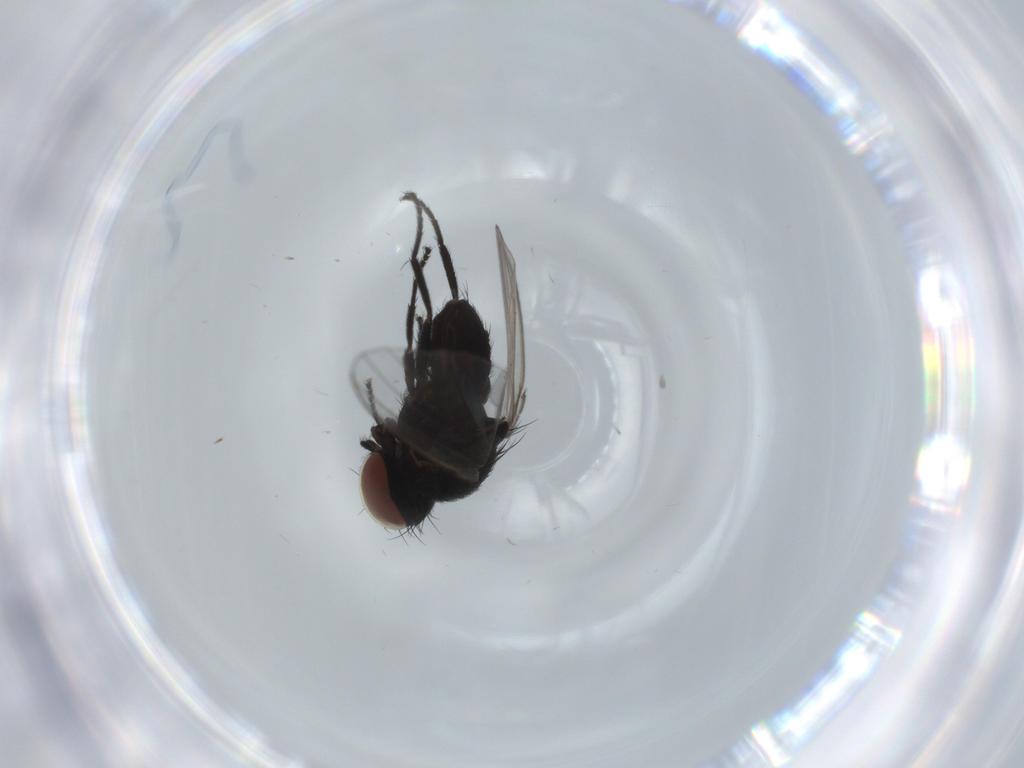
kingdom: Animalia
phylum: Arthropoda
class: Insecta
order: Diptera
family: Milichiidae
